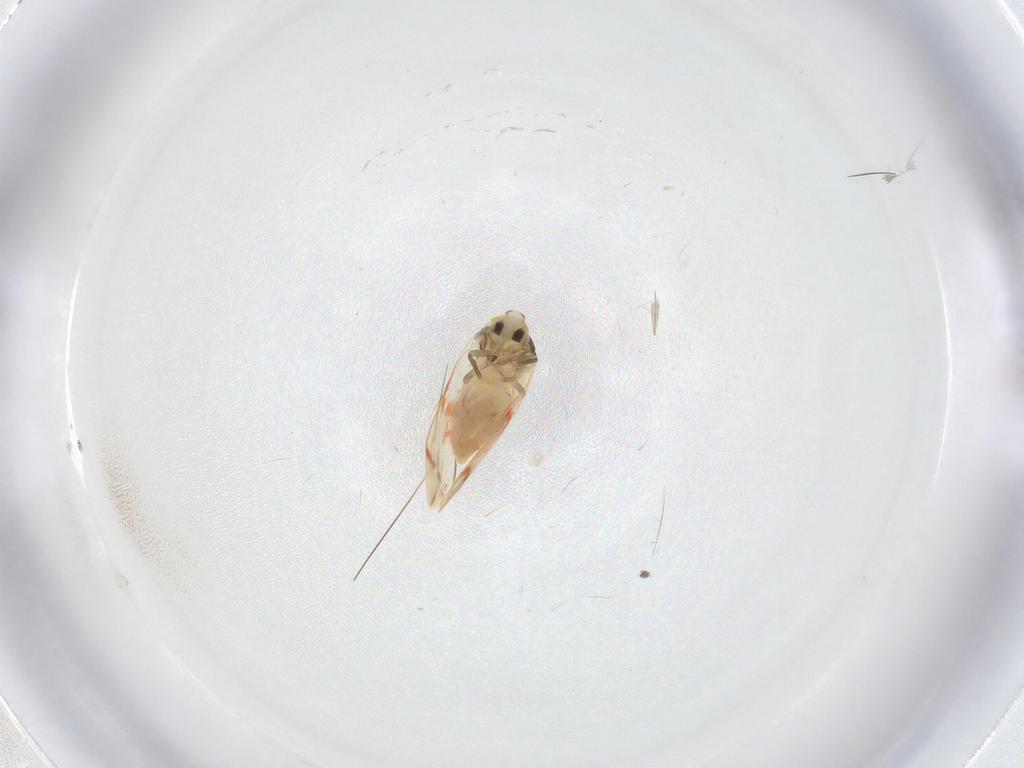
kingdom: Animalia
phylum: Arthropoda
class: Insecta
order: Hemiptera
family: Aleyrodidae
